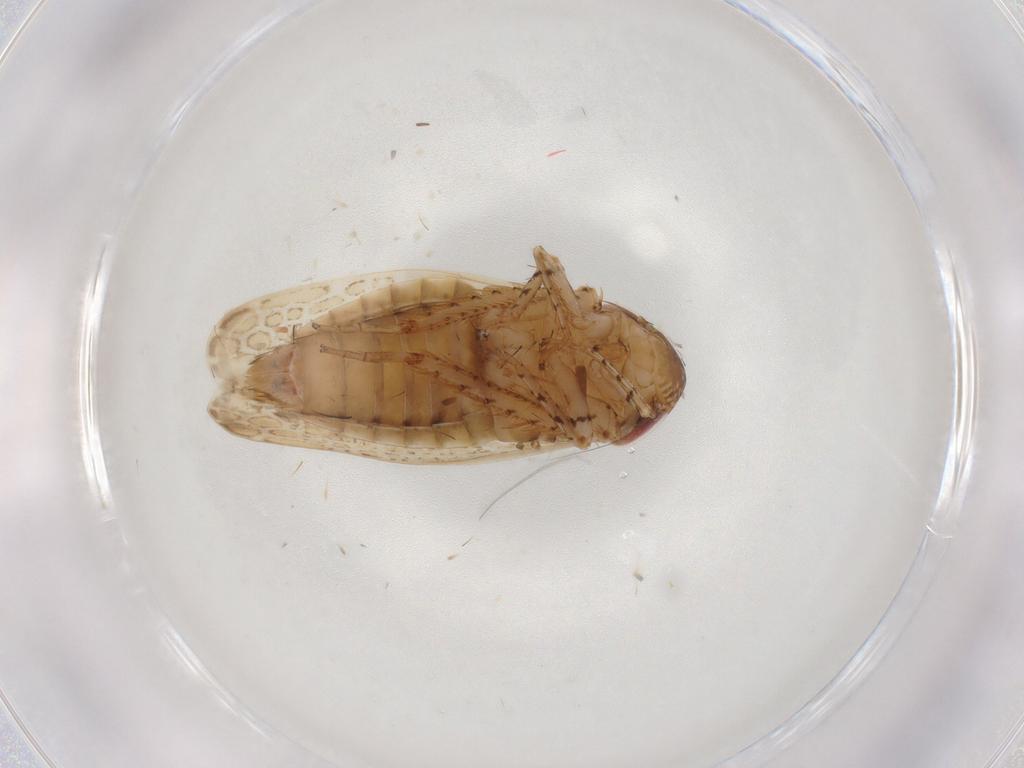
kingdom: Animalia
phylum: Arthropoda
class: Insecta
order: Hemiptera
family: Cicadellidae
